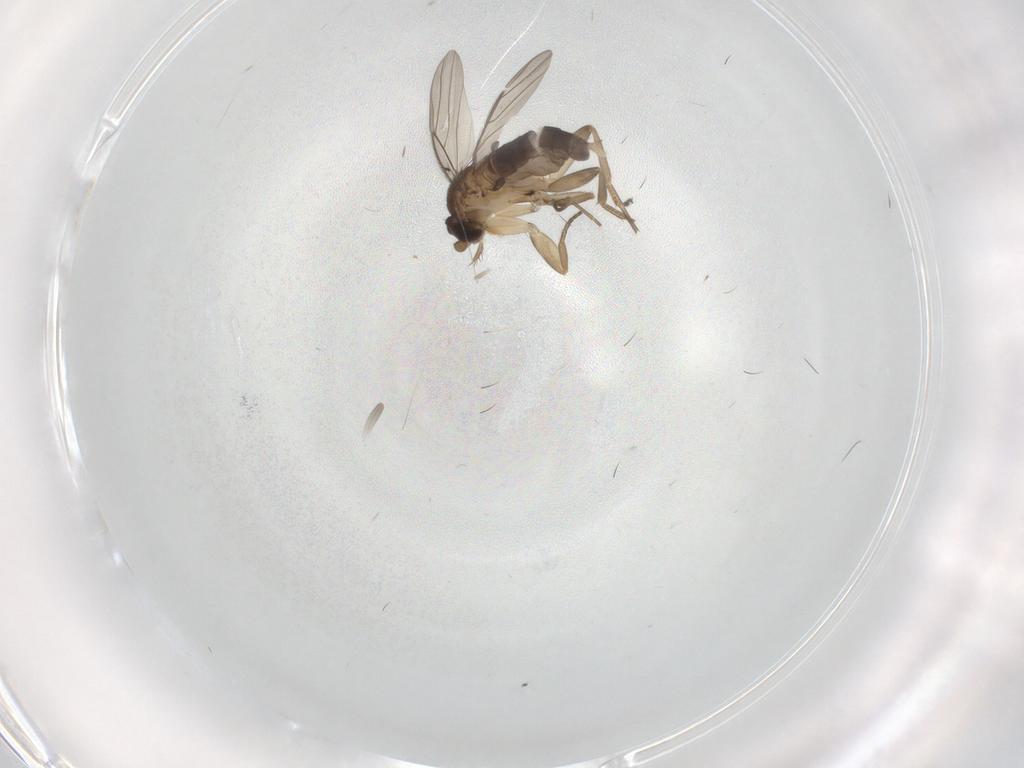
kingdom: Animalia
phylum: Arthropoda
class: Insecta
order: Diptera
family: Phoridae
